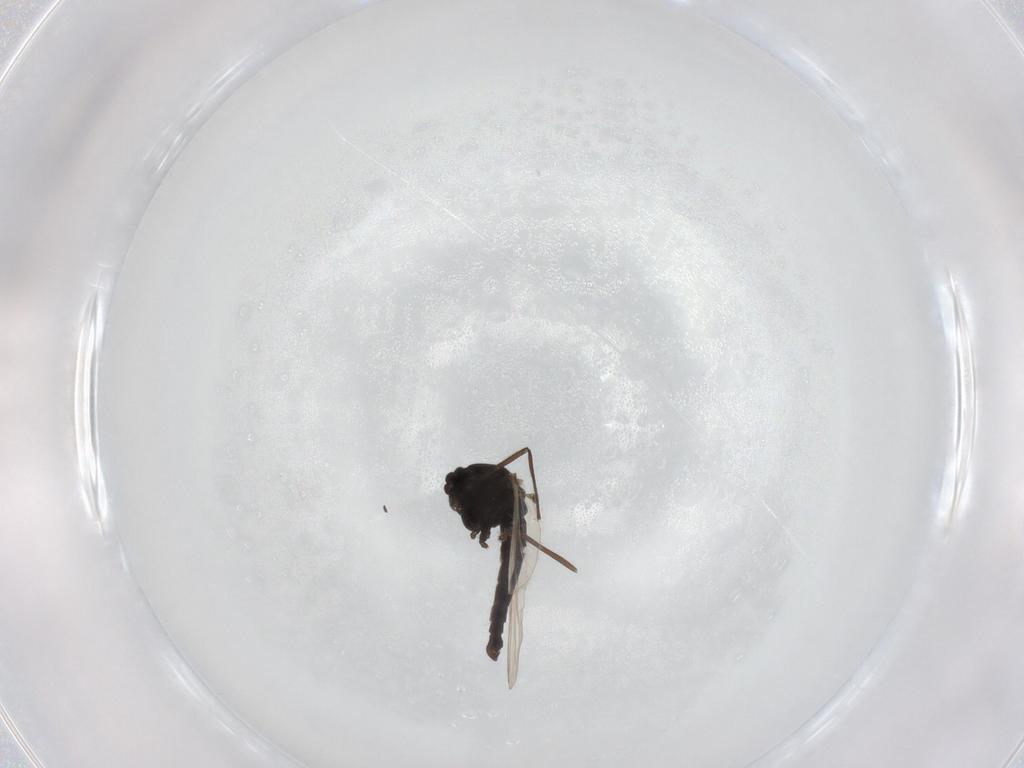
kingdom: Animalia
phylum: Arthropoda
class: Insecta
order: Diptera
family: Chironomidae
